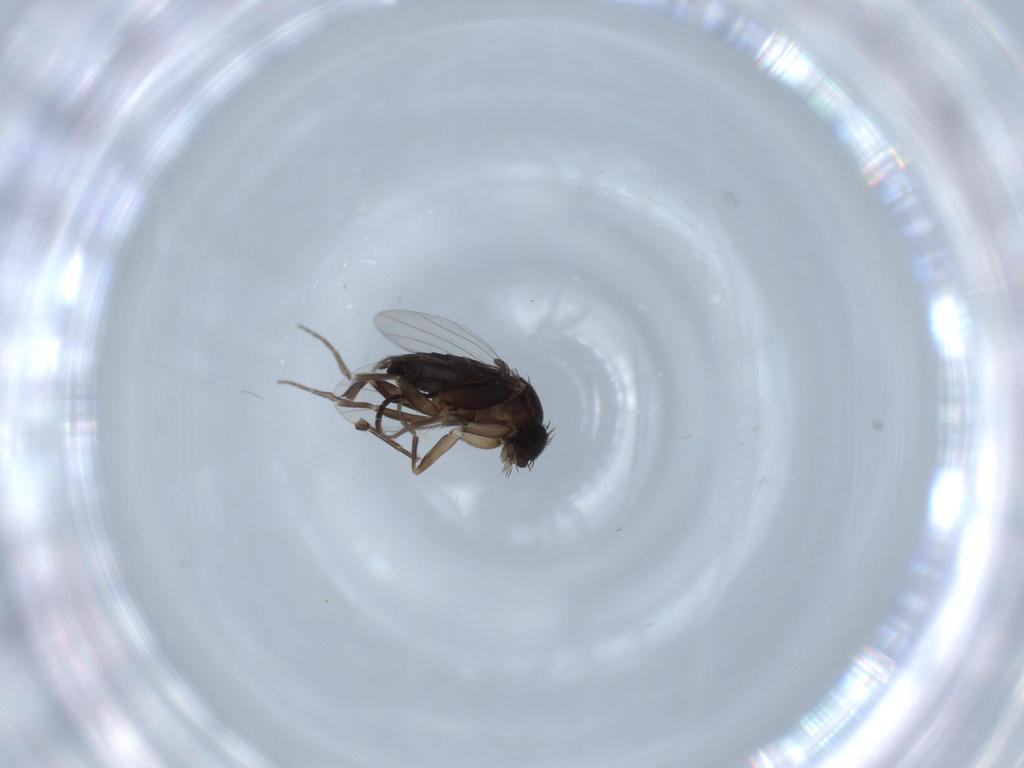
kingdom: Animalia
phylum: Arthropoda
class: Insecta
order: Diptera
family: Phoridae
